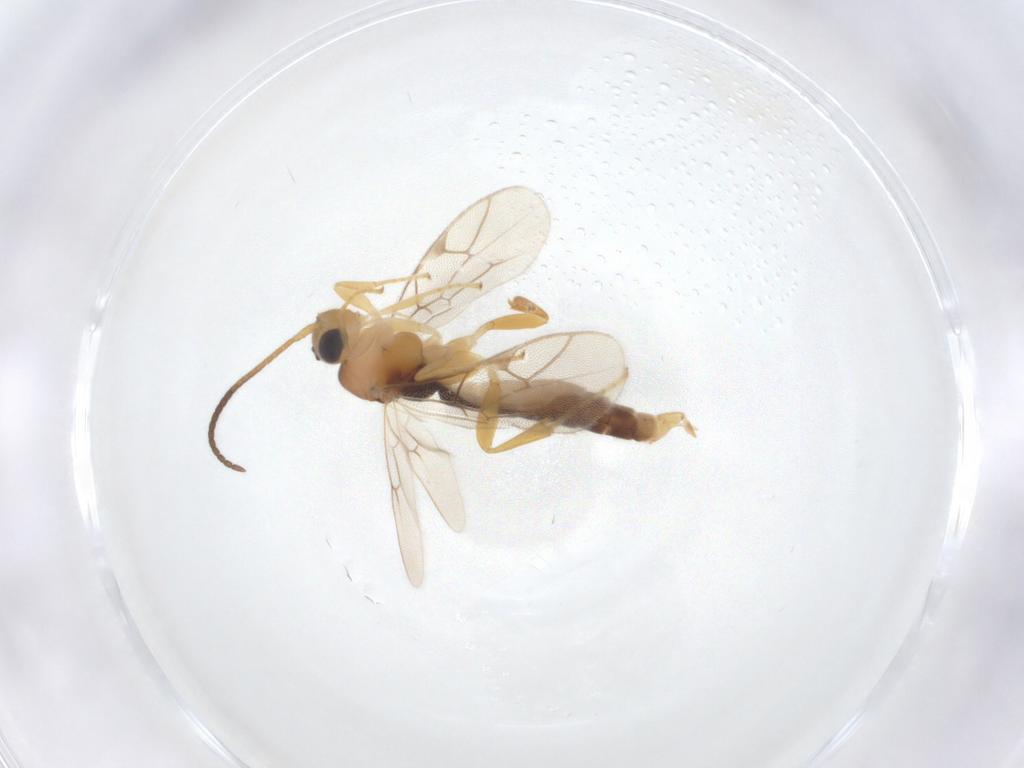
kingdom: Animalia
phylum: Arthropoda
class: Insecta
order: Hymenoptera
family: Ichneumonidae
